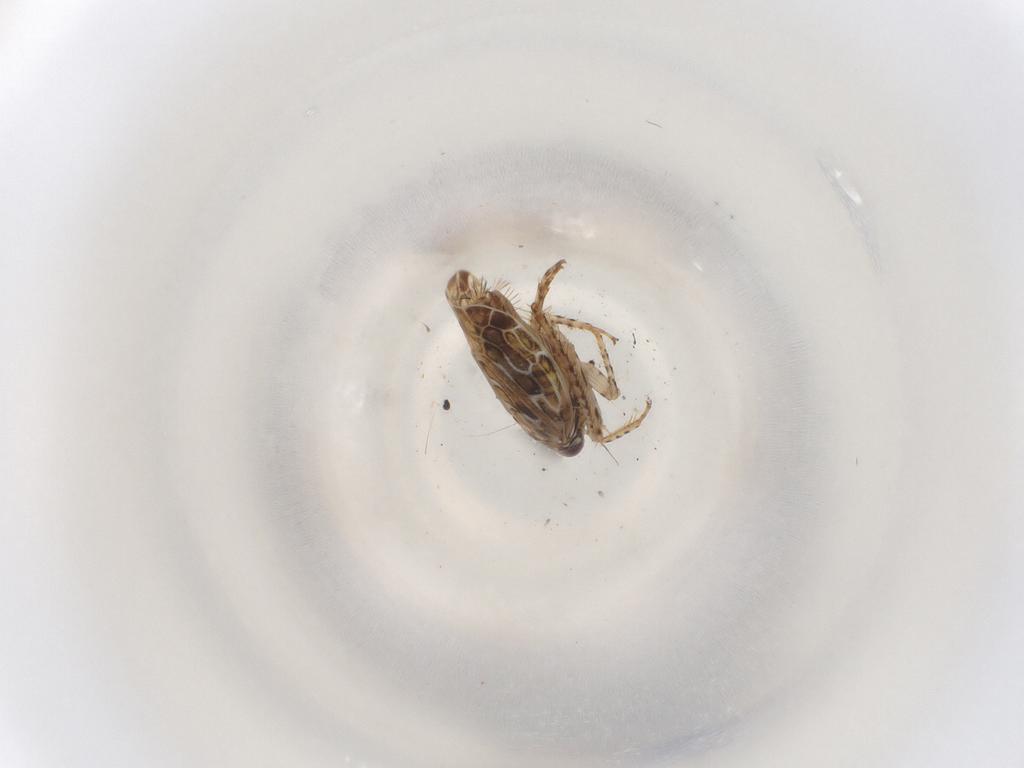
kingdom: Animalia
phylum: Arthropoda
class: Insecta
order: Hemiptera
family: Cicadellidae
